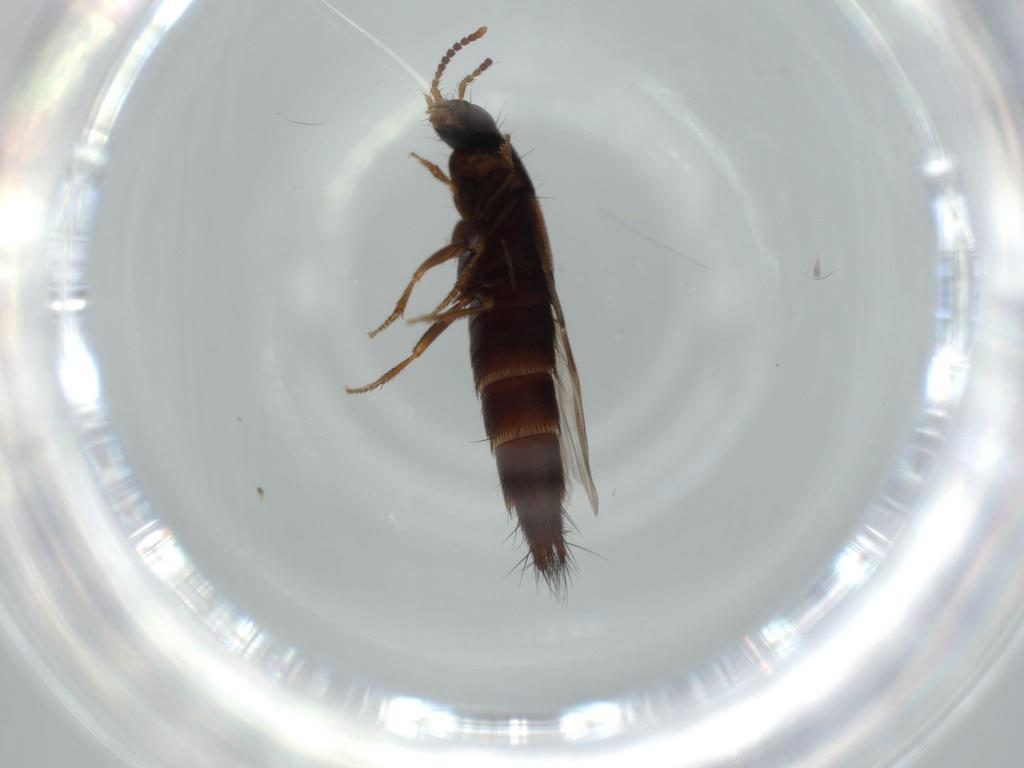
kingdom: Animalia
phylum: Arthropoda
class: Insecta
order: Coleoptera
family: Staphylinidae
